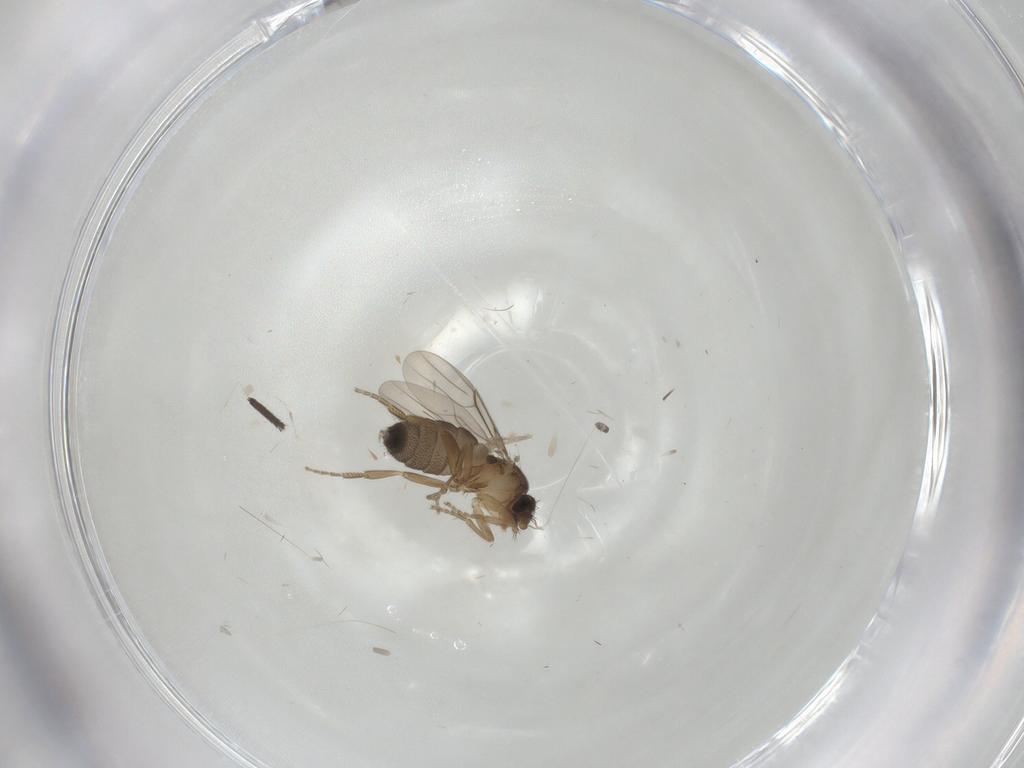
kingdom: Animalia
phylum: Arthropoda
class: Insecta
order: Diptera
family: Phoridae
